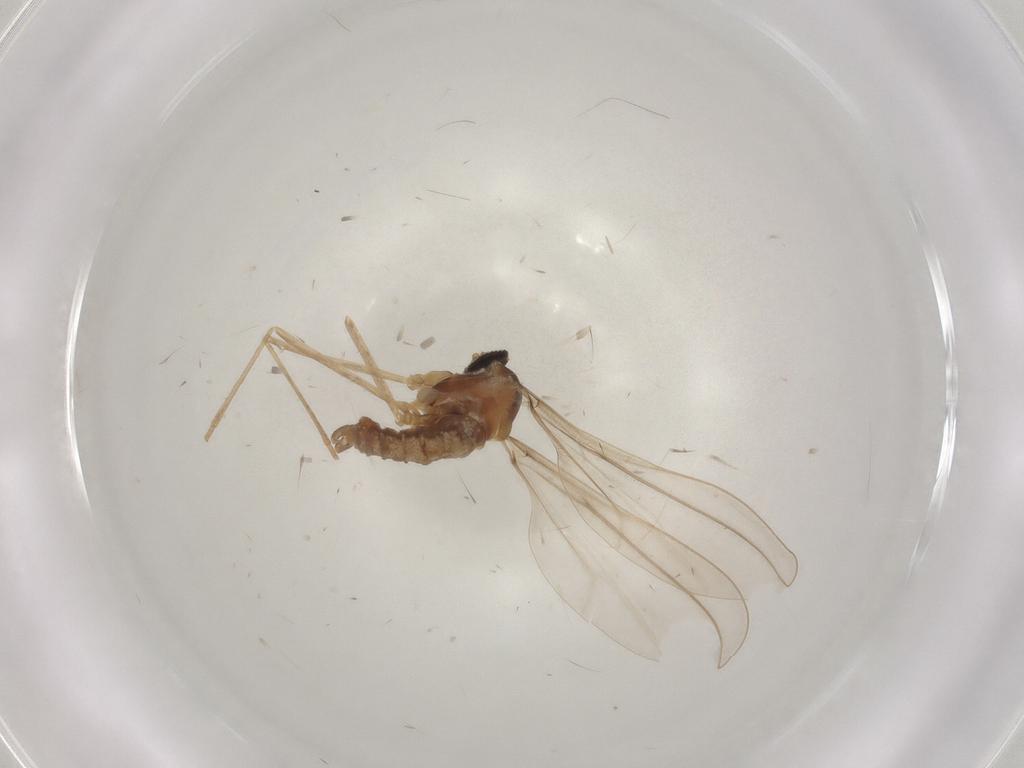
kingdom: Animalia
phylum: Arthropoda
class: Insecta
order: Diptera
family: Cecidomyiidae
